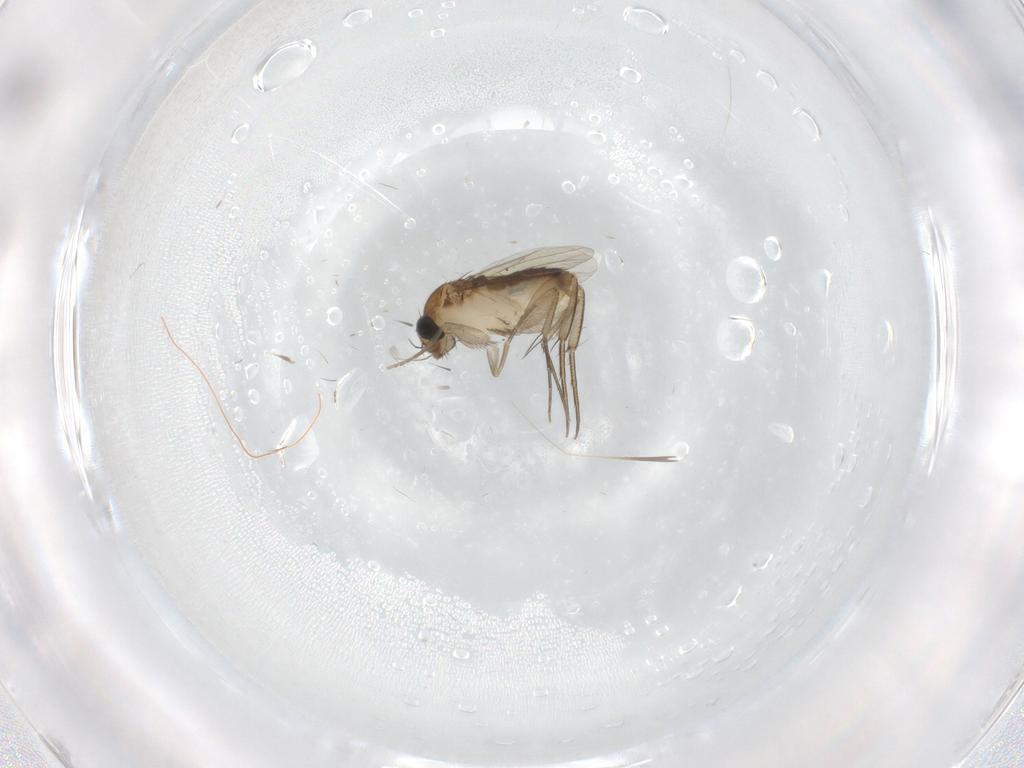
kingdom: Animalia
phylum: Arthropoda
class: Insecta
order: Diptera
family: Phoridae
